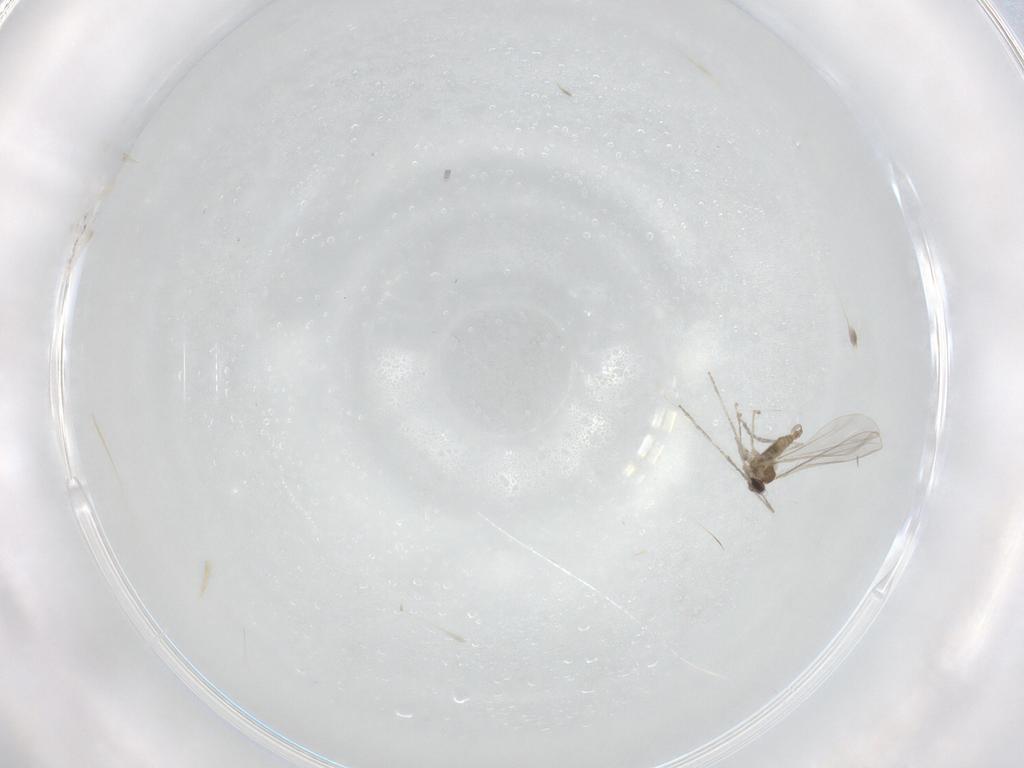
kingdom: Animalia
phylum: Arthropoda
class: Insecta
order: Diptera
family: Cecidomyiidae
